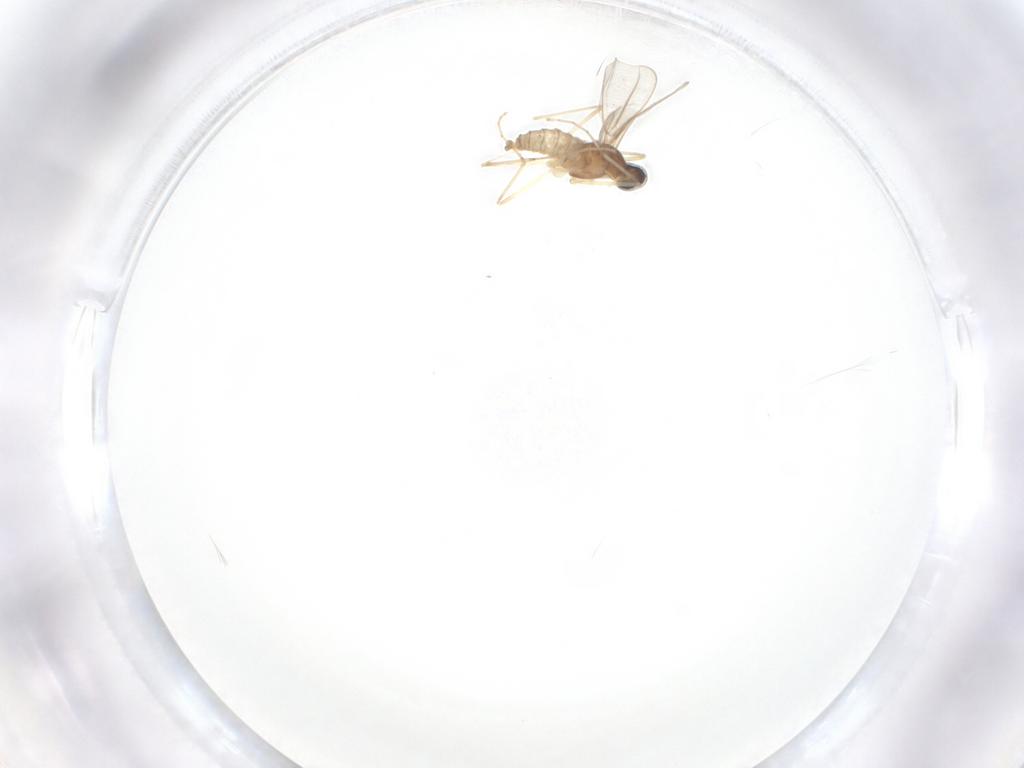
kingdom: Animalia
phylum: Arthropoda
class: Insecta
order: Diptera
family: Cecidomyiidae
